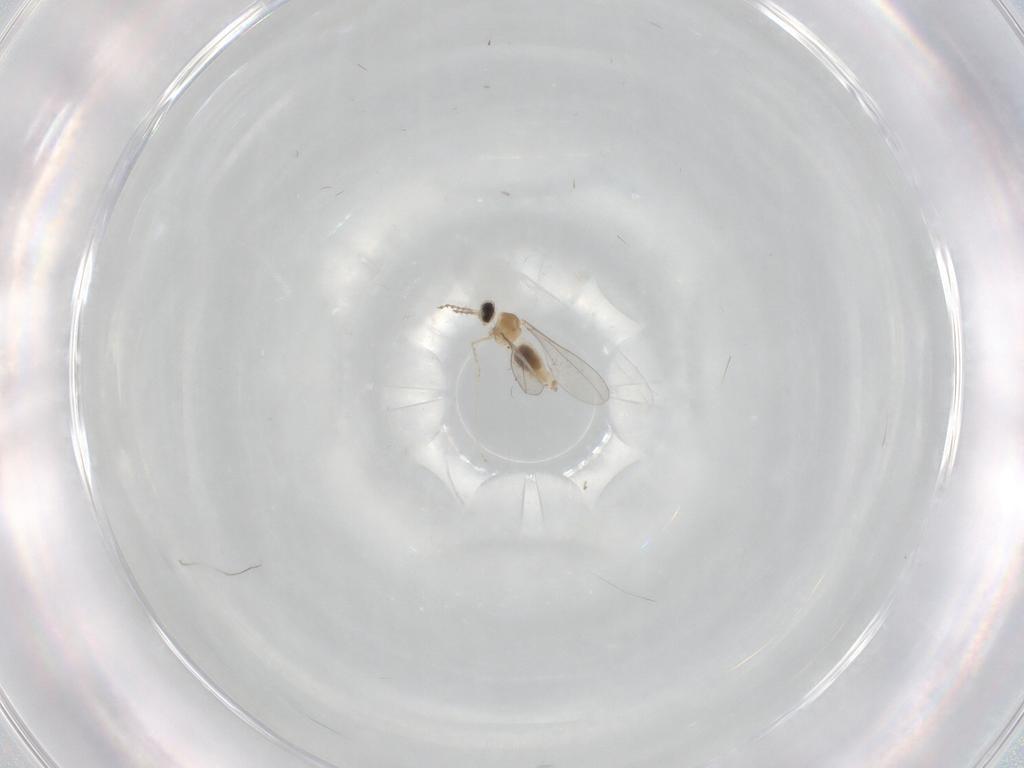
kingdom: Animalia
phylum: Arthropoda
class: Insecta
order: Diptera
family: Cecidomyiidae
